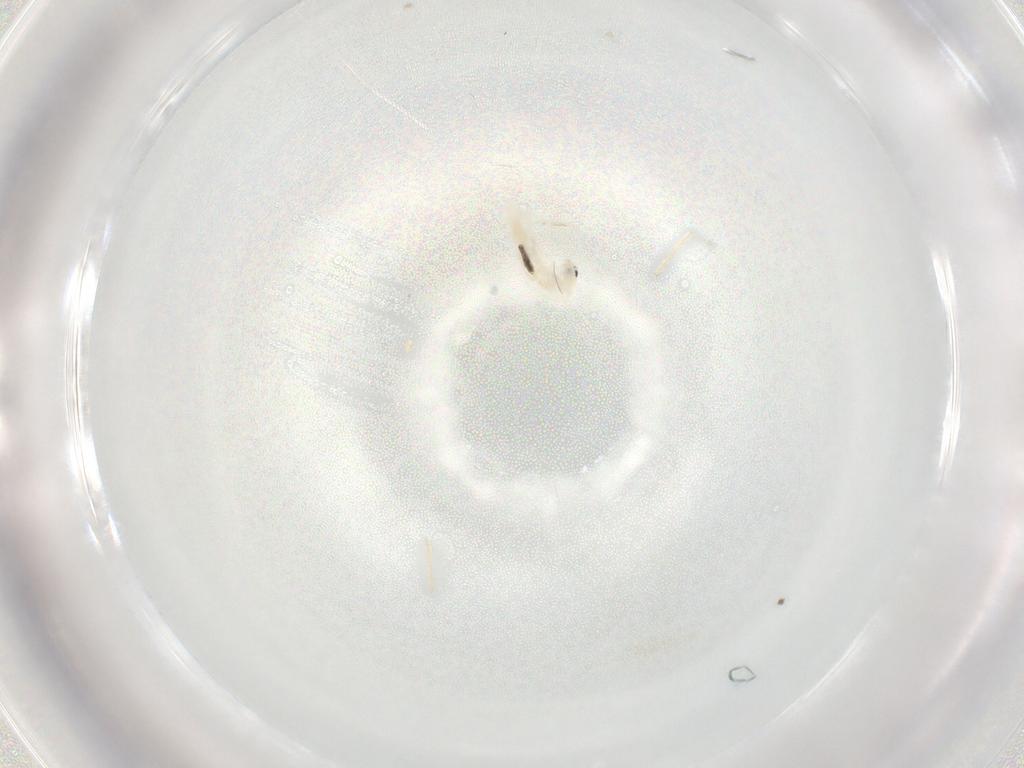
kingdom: Animalia
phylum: Arthropoda
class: Collembola
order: Entomobryomorpha
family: Entomobryidae
